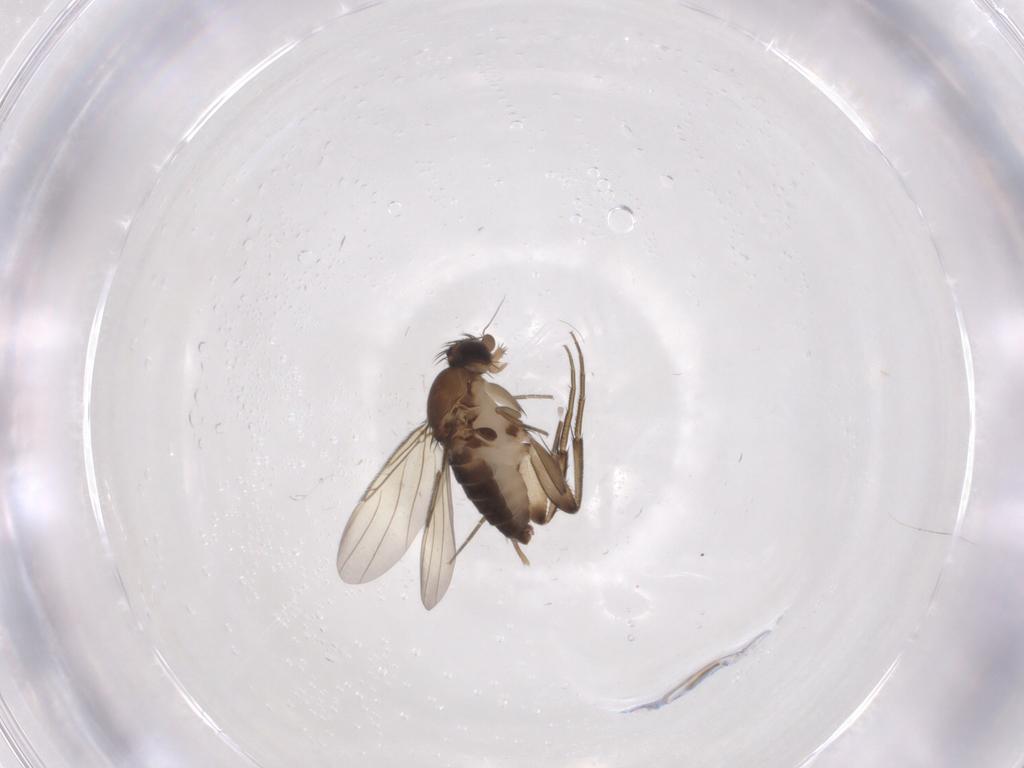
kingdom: Animalia
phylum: Arthropoda
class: Insecta
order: Diptera
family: Phoridae
